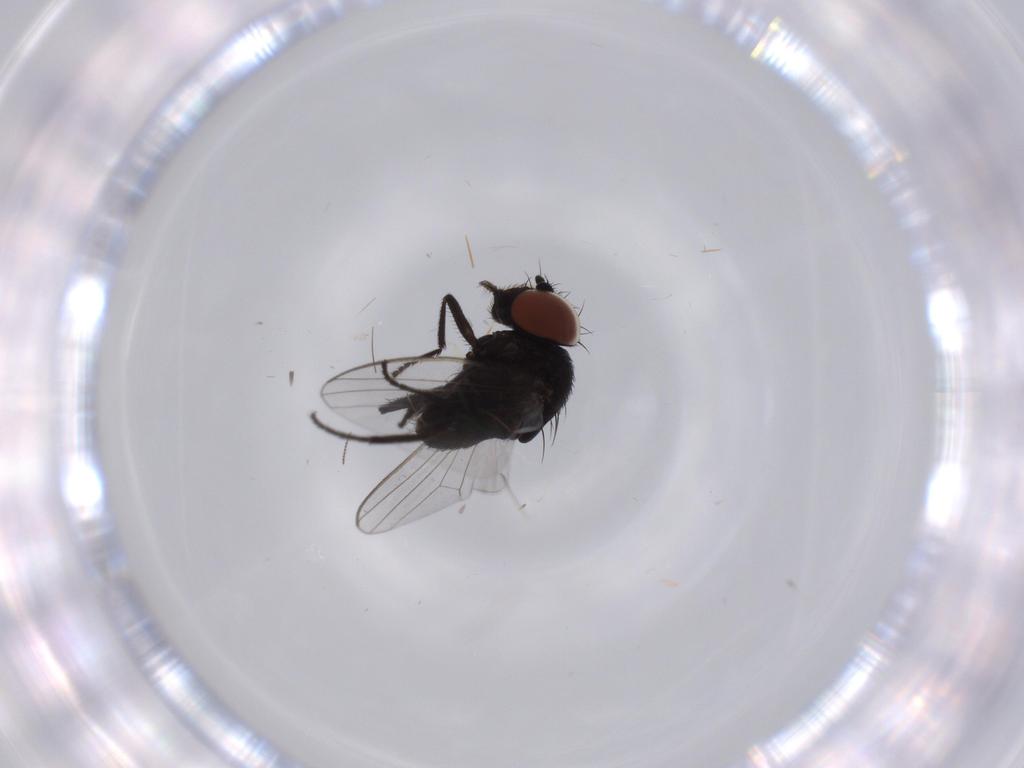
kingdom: Animalia
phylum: Arthropoda
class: Insecta
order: Diptera
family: Milichiidae
